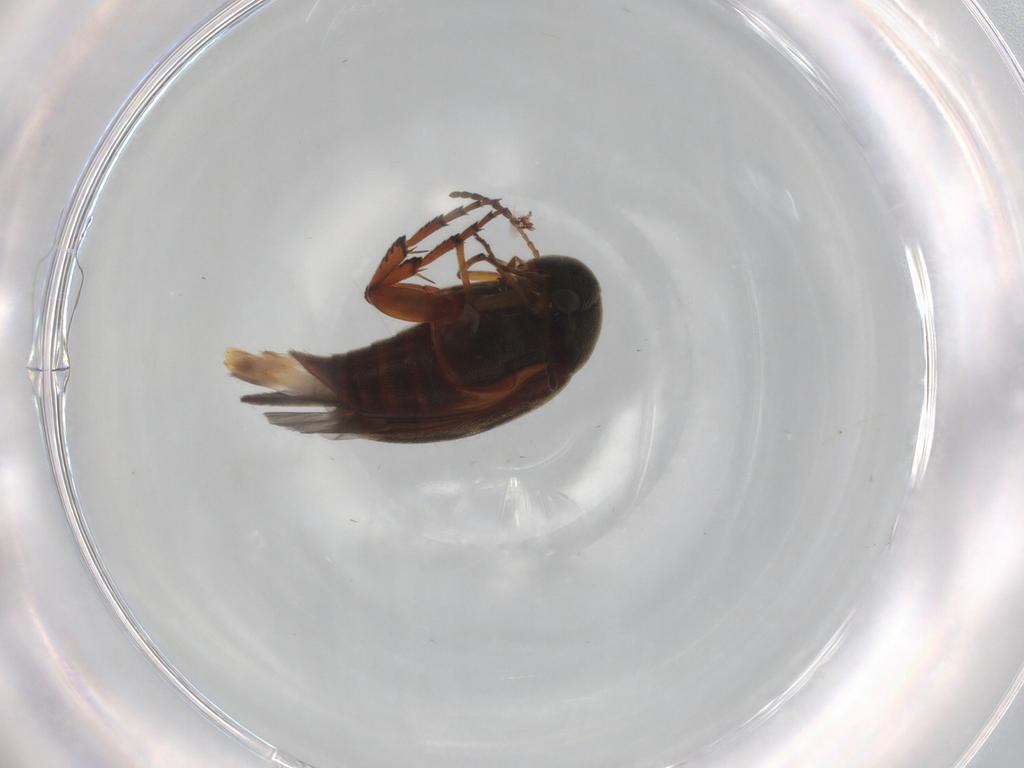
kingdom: Animalia
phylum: Arthropoda
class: Insecta
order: Coleoptera
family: Mordellidae
